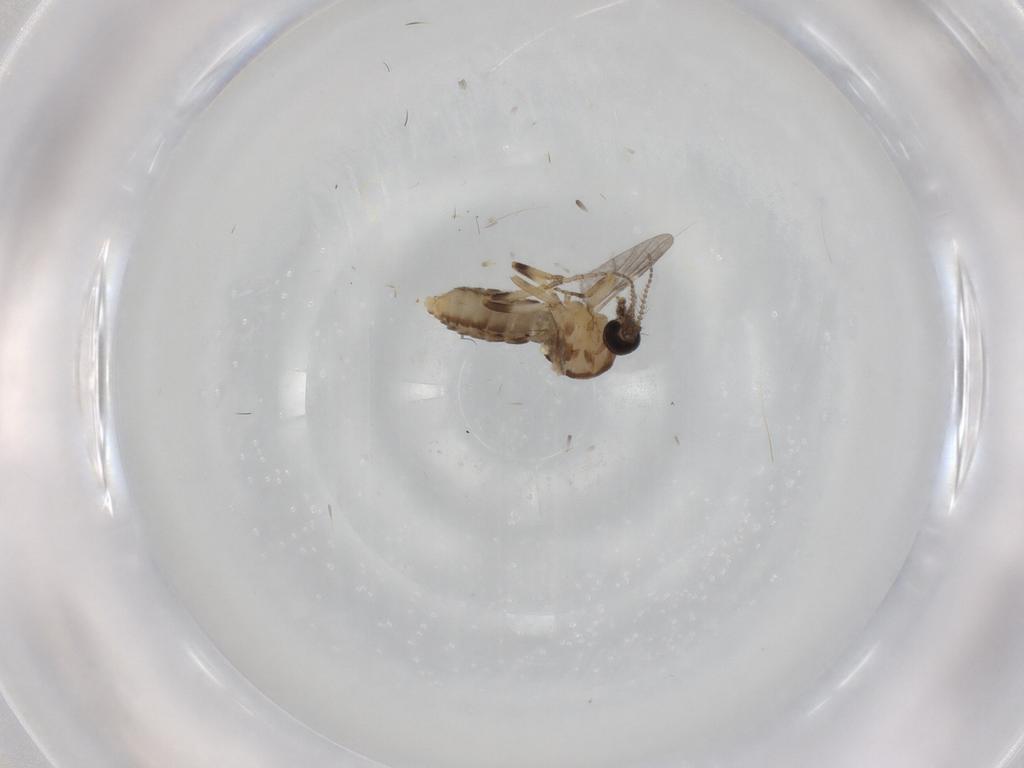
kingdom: Animalia
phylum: Arthropoda
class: Insecta
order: Diptera
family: Ceratopogonidae
